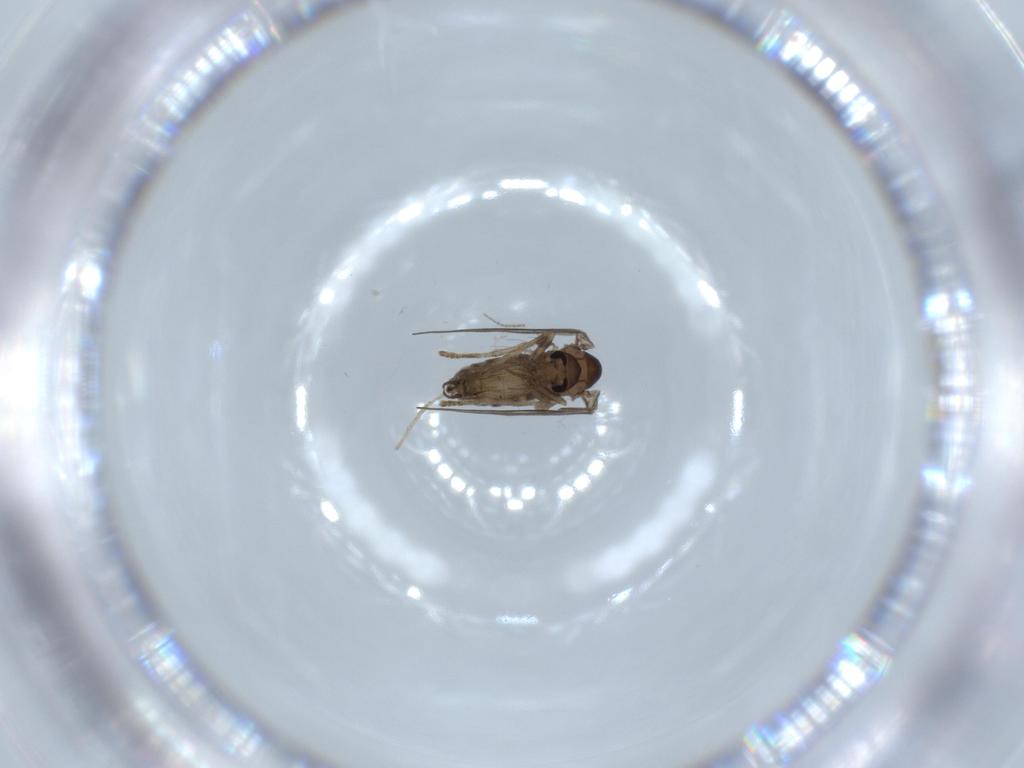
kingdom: Animalia
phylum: Arthropoda
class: Insecta
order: Diptera
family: Psychodidae
